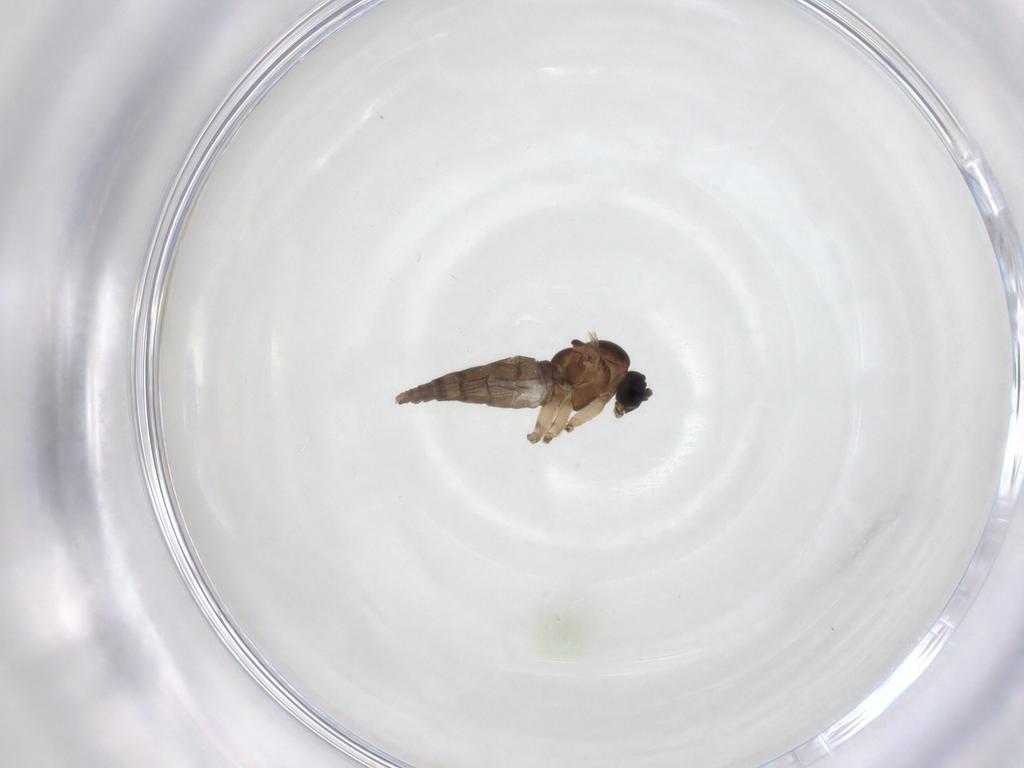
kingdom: Animalia
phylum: Arthropoda
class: Insecta
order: Diptera
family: Sciaridae
